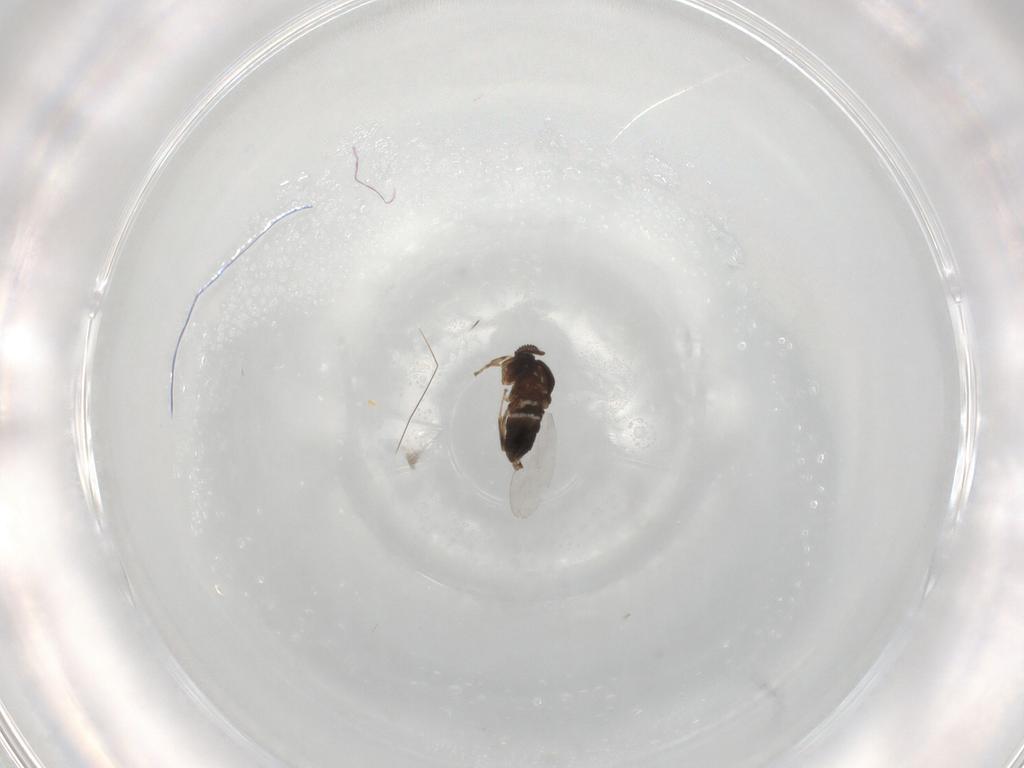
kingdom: Animalia
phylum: Arthropoda
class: Insecta
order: Diptera
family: Scatopsidae
